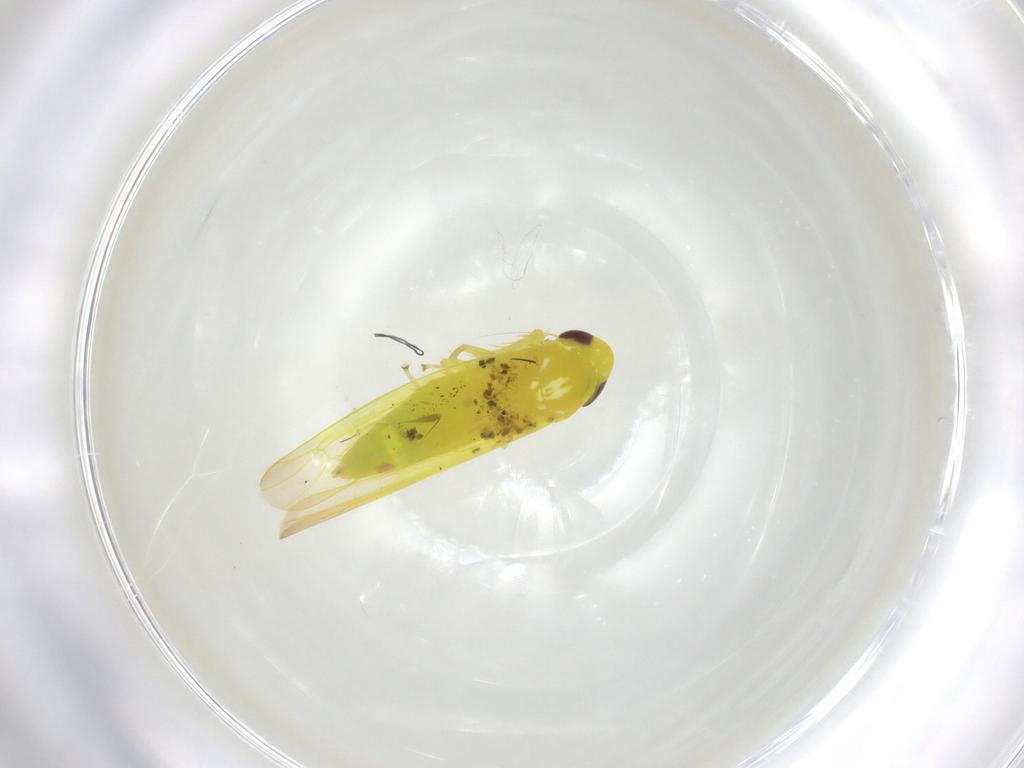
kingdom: Animalia
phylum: Arthropoda
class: Insecta
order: Hemiptera
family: Cicadellidae
